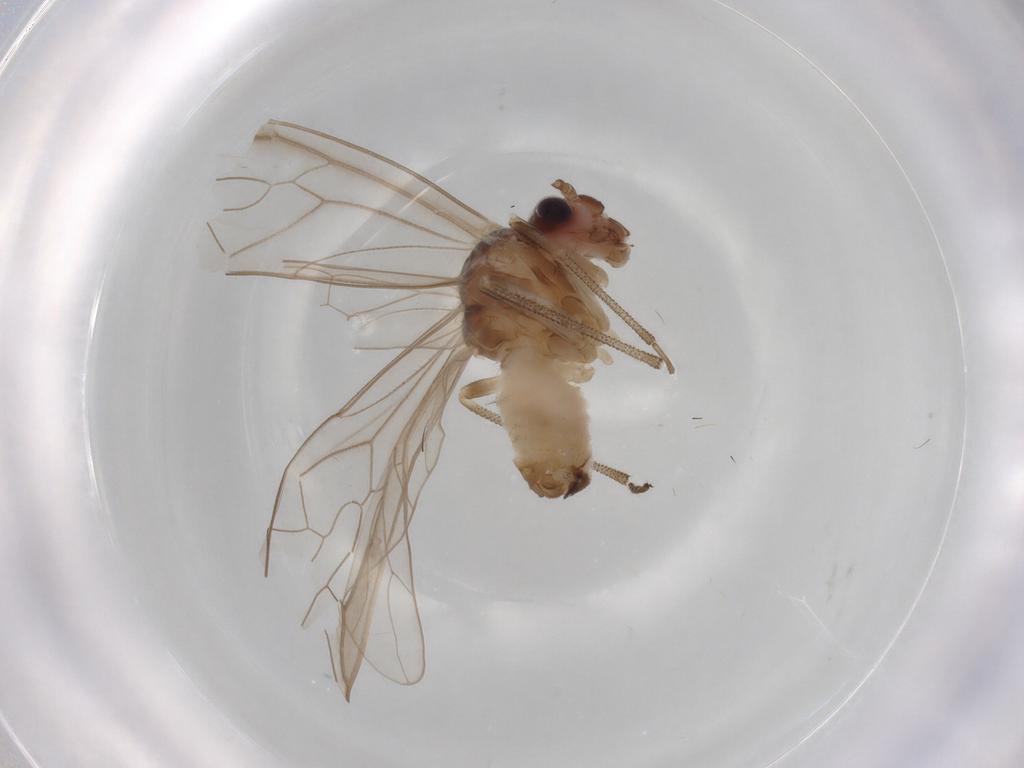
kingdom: Animalia
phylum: Arthropoda
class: Insecta
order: Psocodea
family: Stenopsocidae
